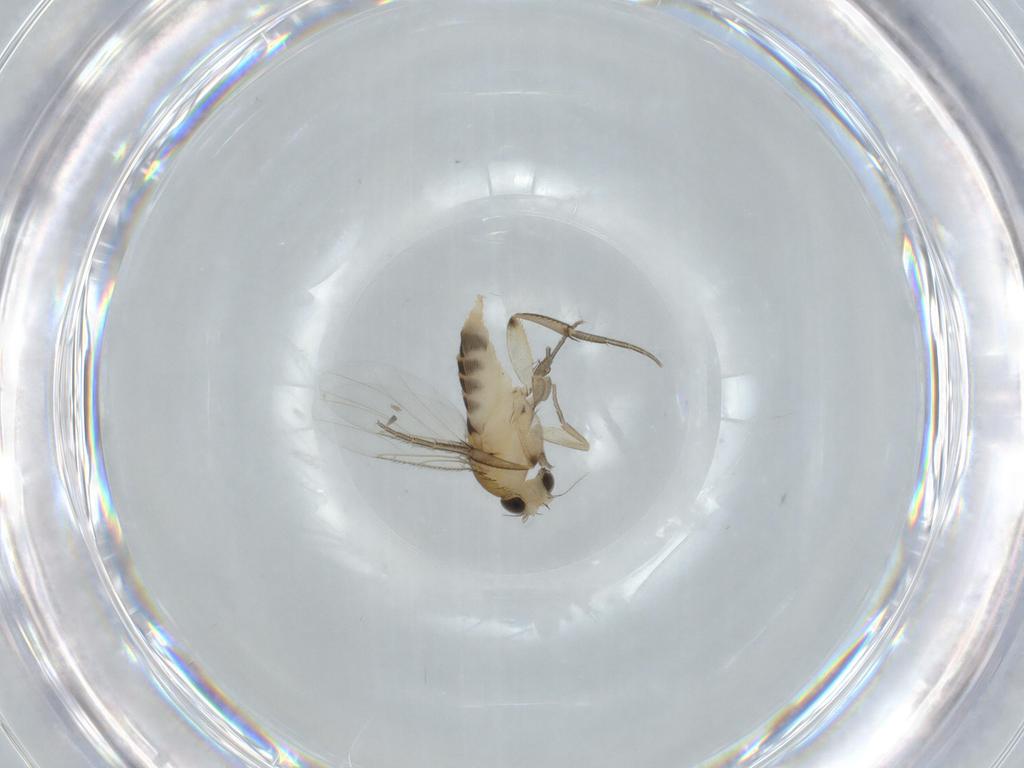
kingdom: Animalia
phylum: Arthropoda
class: Insecta
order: Diptera
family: Phoridae
